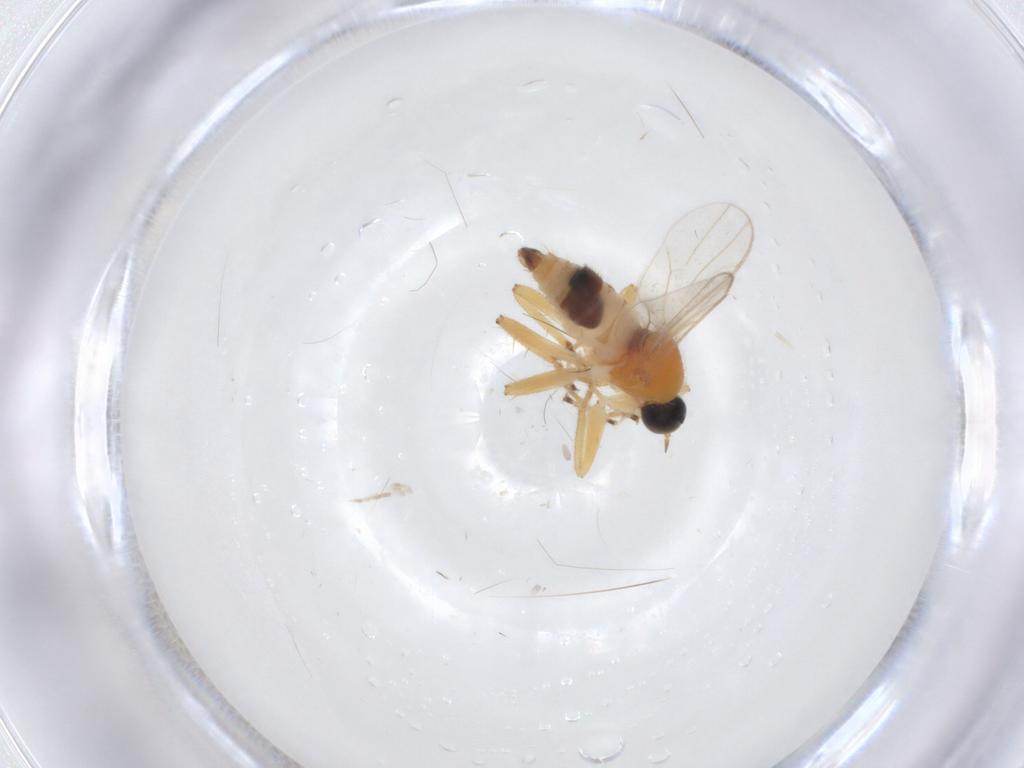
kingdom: Animalia
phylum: Arthropoda
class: Insecta
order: Diptera
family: Hybotidae
